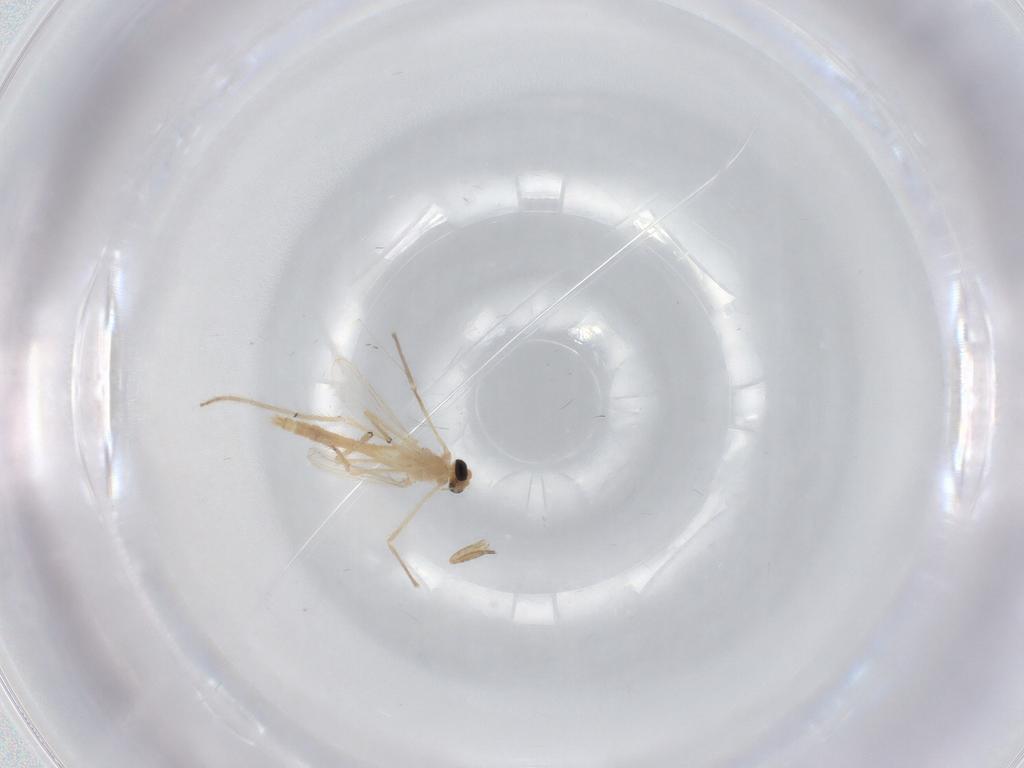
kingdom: Animalia
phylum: Arthropoda
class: Insecta
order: Diptera
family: Phoridae
